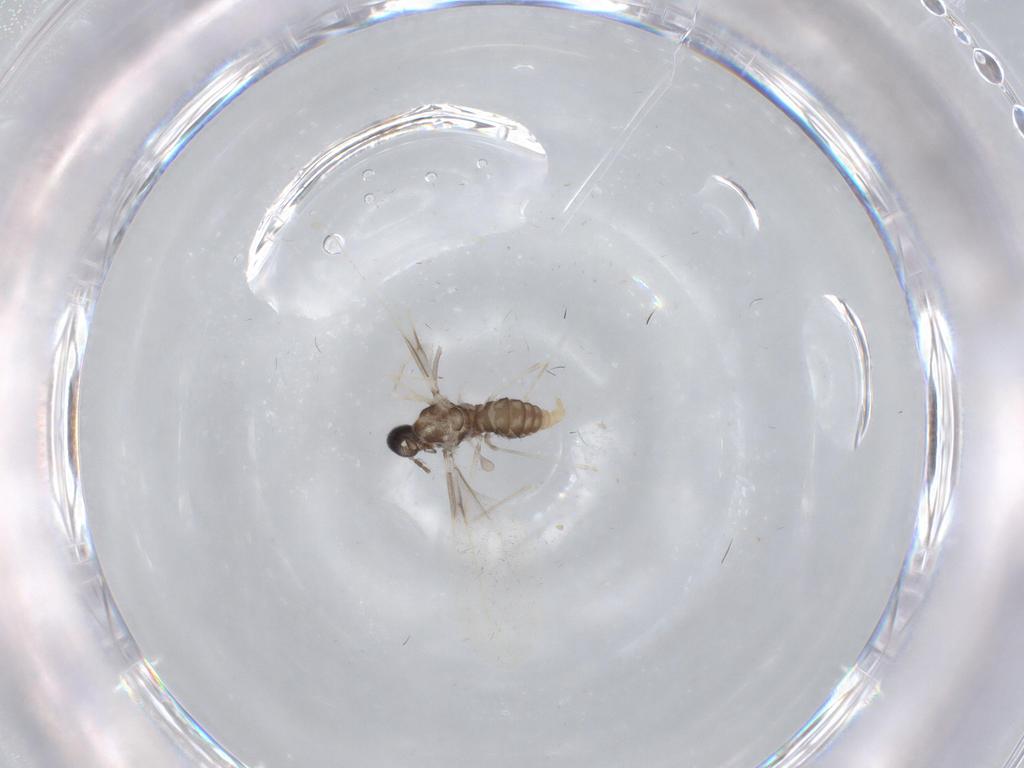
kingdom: Animalia
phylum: Arthropoda
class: Insecta
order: Diptera
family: Cecidomyiidae
